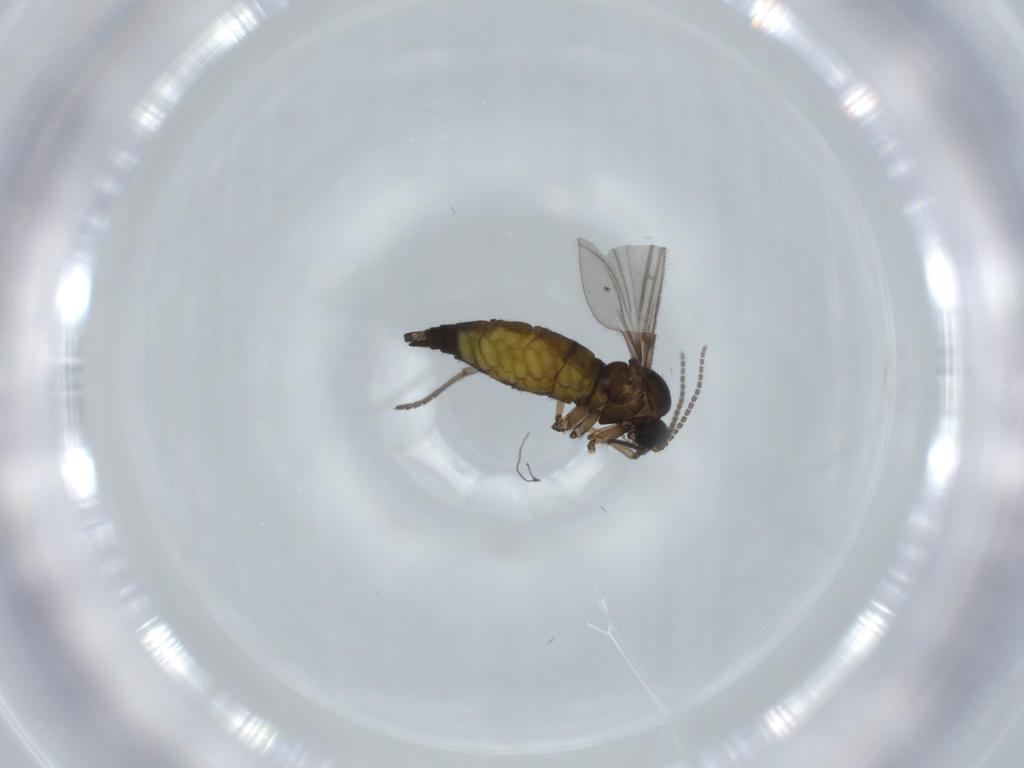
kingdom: Animalia
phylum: Arthropoda
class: Insecta
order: Diptera
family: Sciaridae
